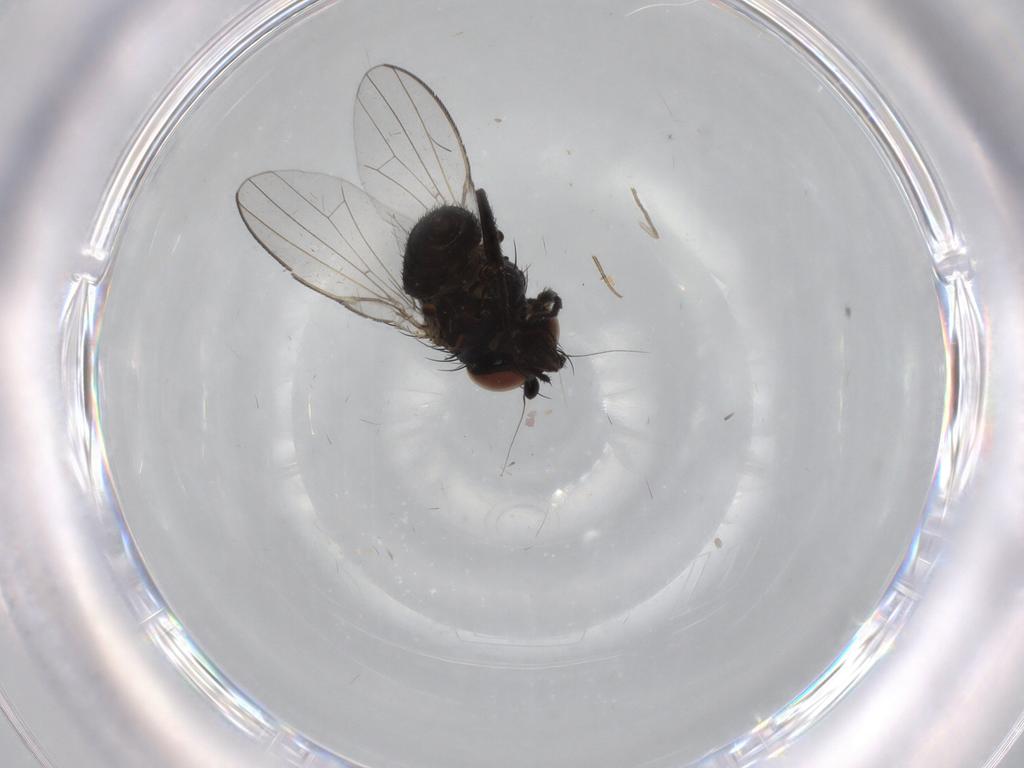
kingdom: Animalia
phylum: Arthropoda
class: Insecta
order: Diptera
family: Milichiidae
